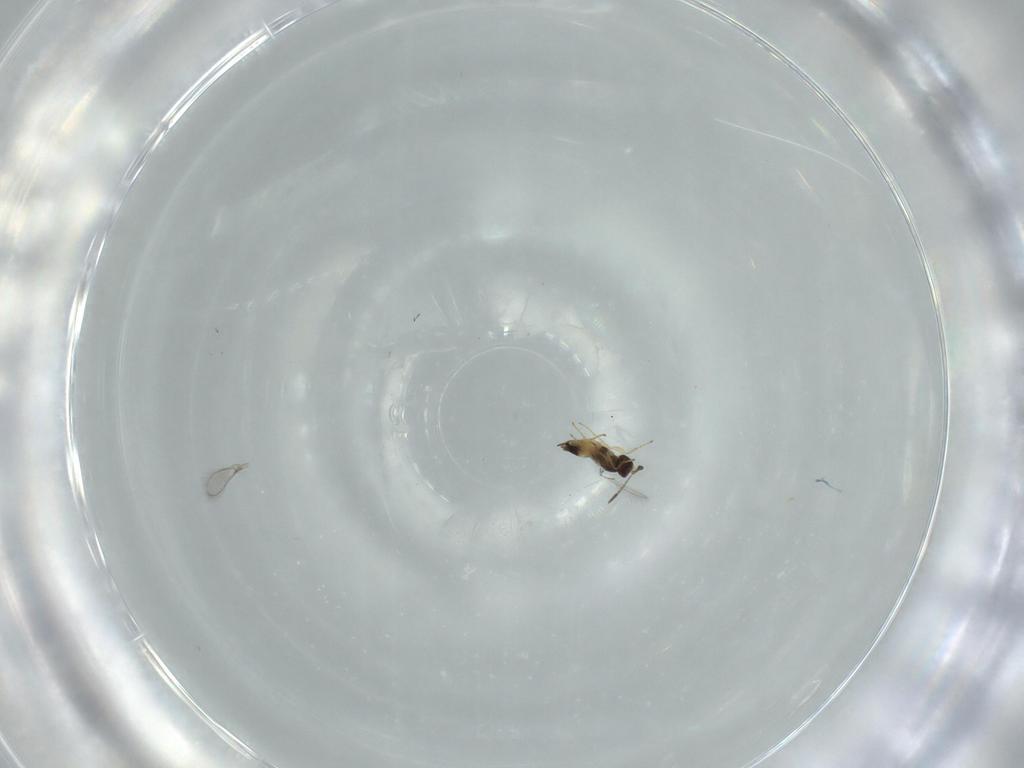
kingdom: Animalia
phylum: Arthropoda
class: Insecta
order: Hymenoptera
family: Mymaridae
